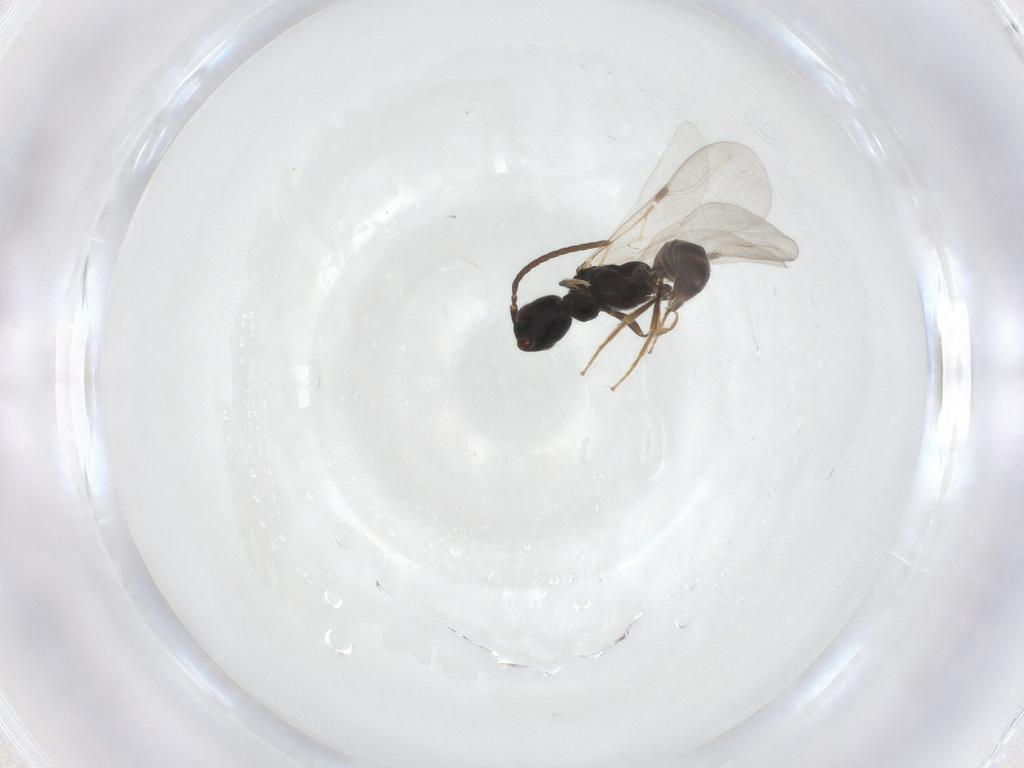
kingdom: Animalia
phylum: Arthropoda
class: Insecta
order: Hymenoptera
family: Bethylidae
